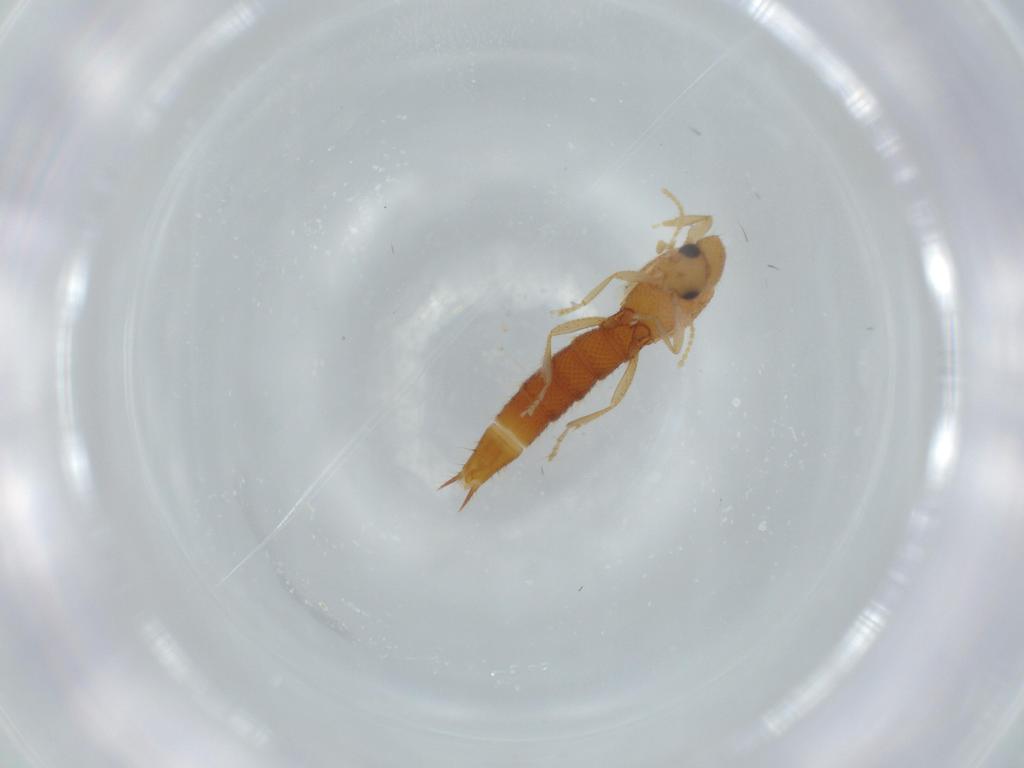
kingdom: Animalia
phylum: Arthropoda
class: Insecta
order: Coleoptera
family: Staphylinidae
